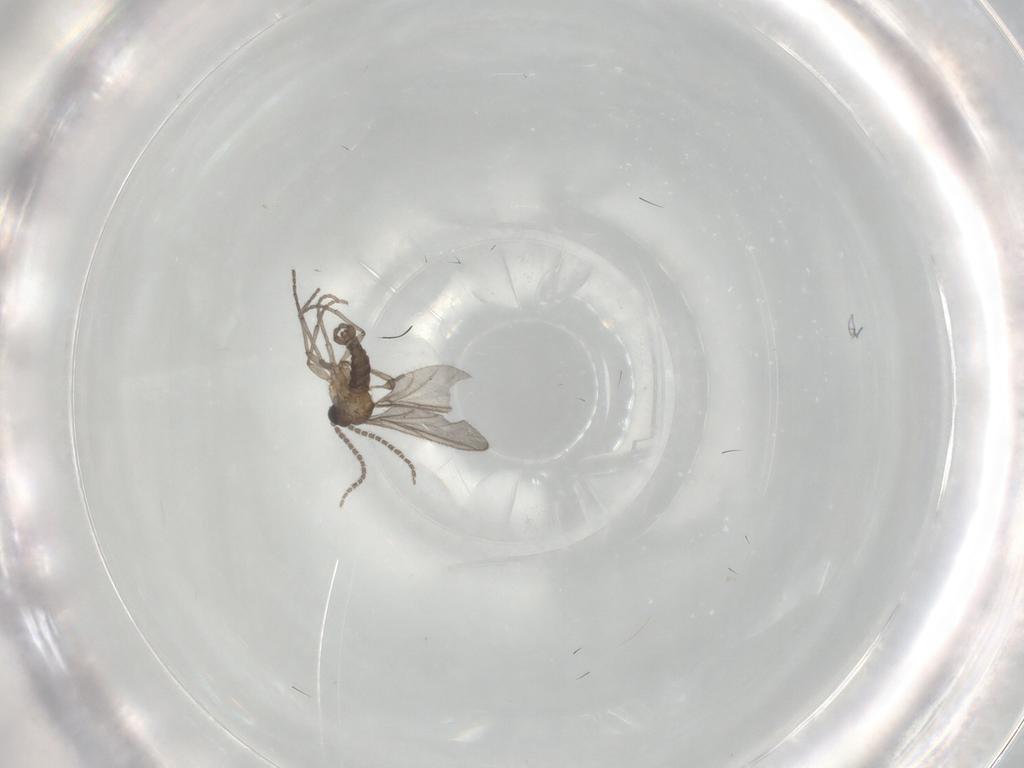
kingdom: Animalia
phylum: Arthropoda
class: Insecta
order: Diptera
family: Sciaridae
